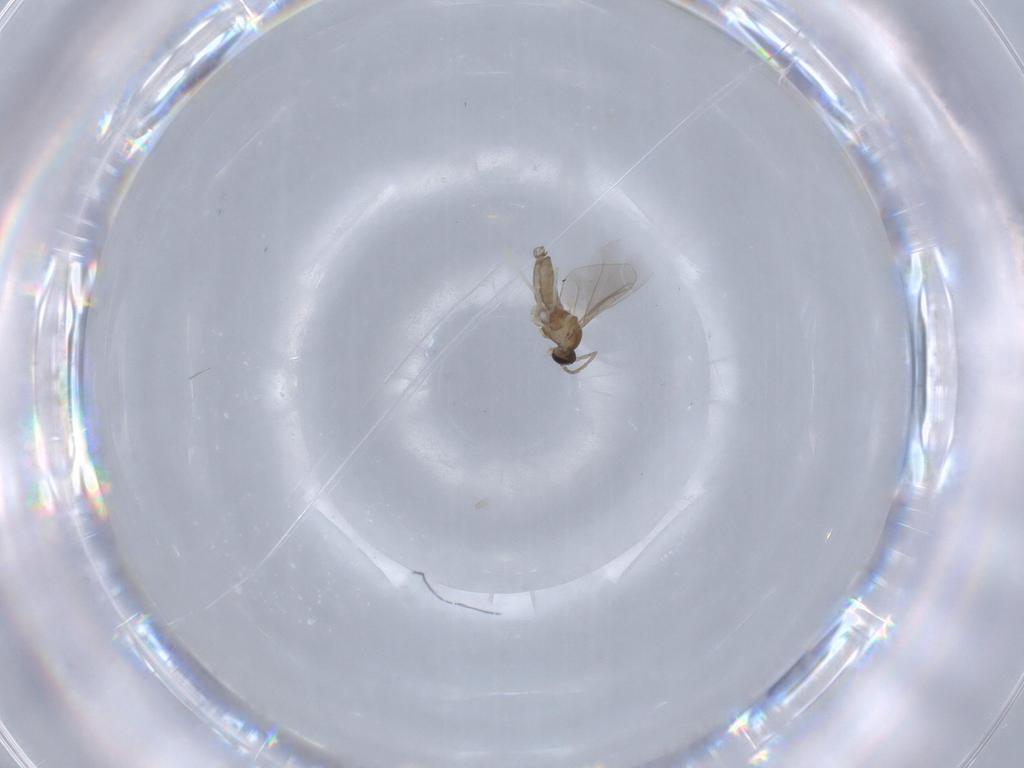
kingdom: Animalia
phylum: Arthropoda
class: Insecta
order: Diptera
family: Cecidomyiidae
